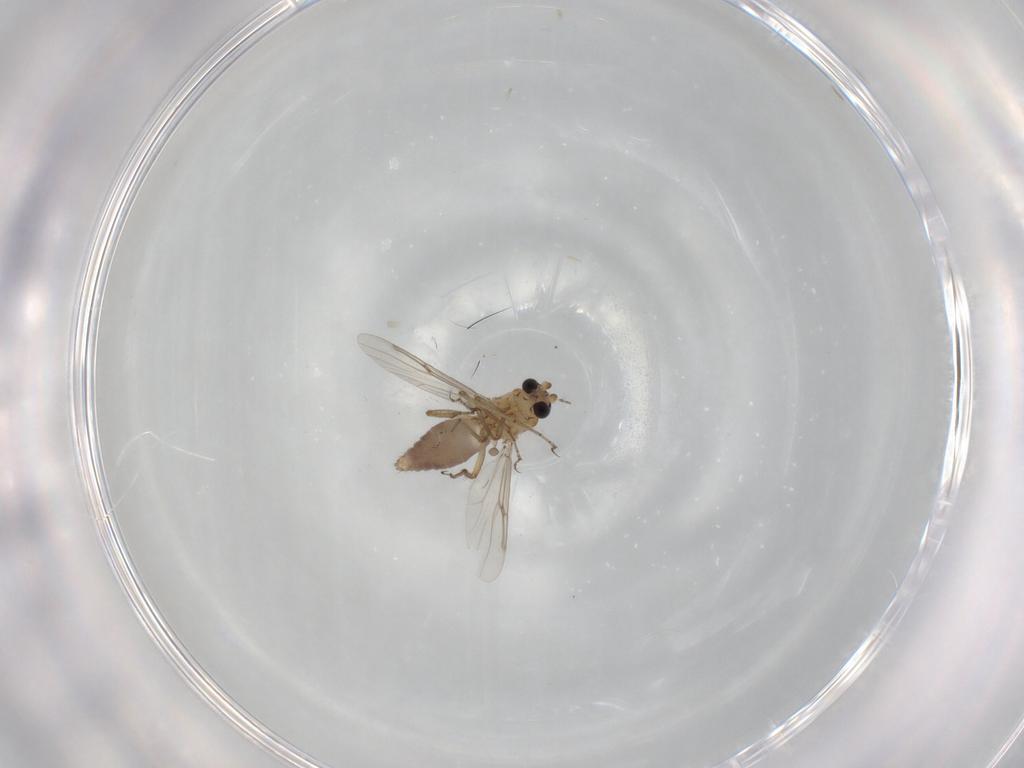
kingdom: Animalia
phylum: Arthropoda
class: Insecta
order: Diptera
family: Ceratopogonidae
